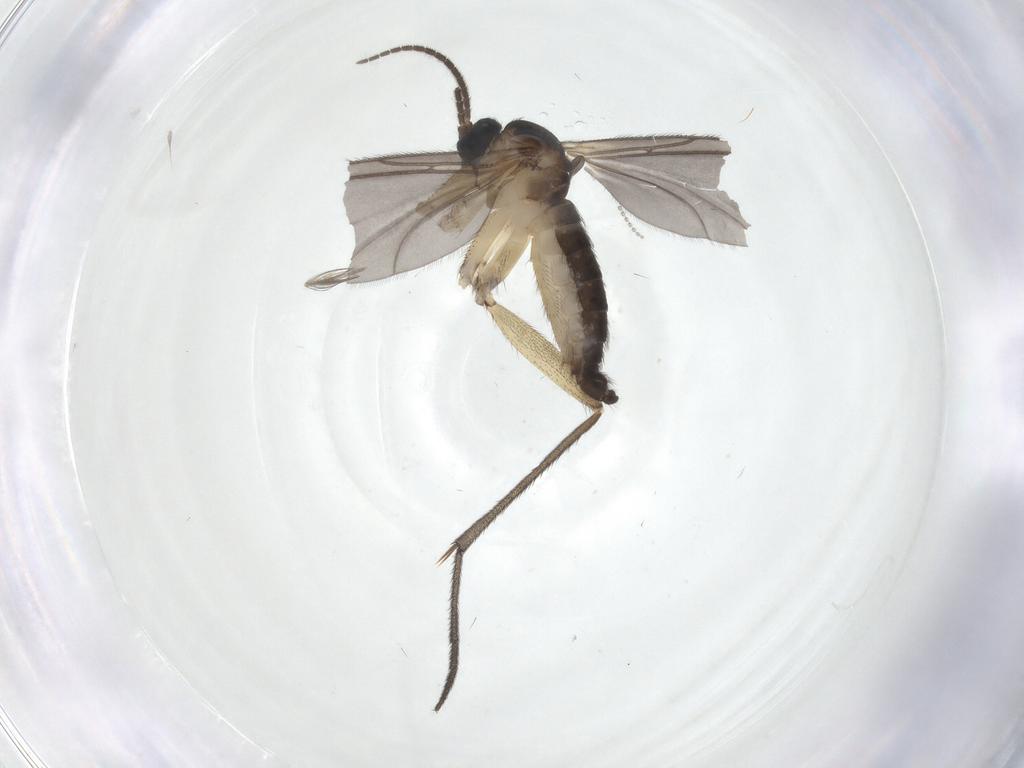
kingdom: Animalia
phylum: Arthropoda
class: Insecta
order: Diptera
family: Sciaridae
